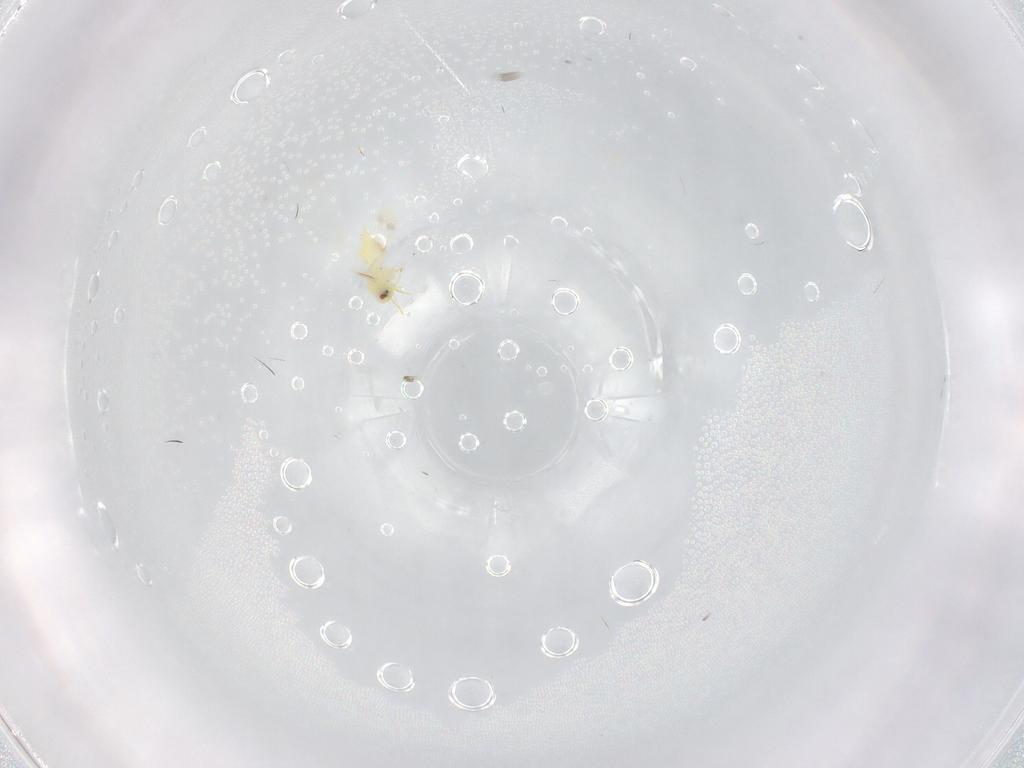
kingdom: Animalia
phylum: Arthropoda
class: Insecta
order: Hemiptera
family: Aleyrodidae
